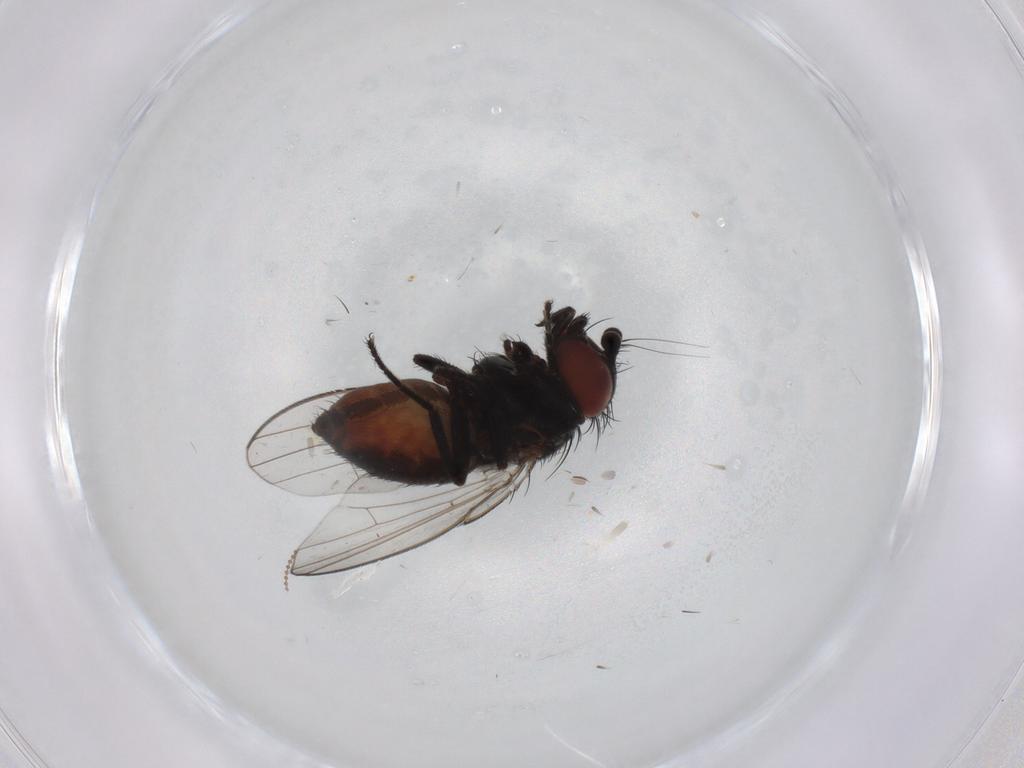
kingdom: Animalia
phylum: Arthropoda
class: Insecta
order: Diptera
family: Milichiidae
